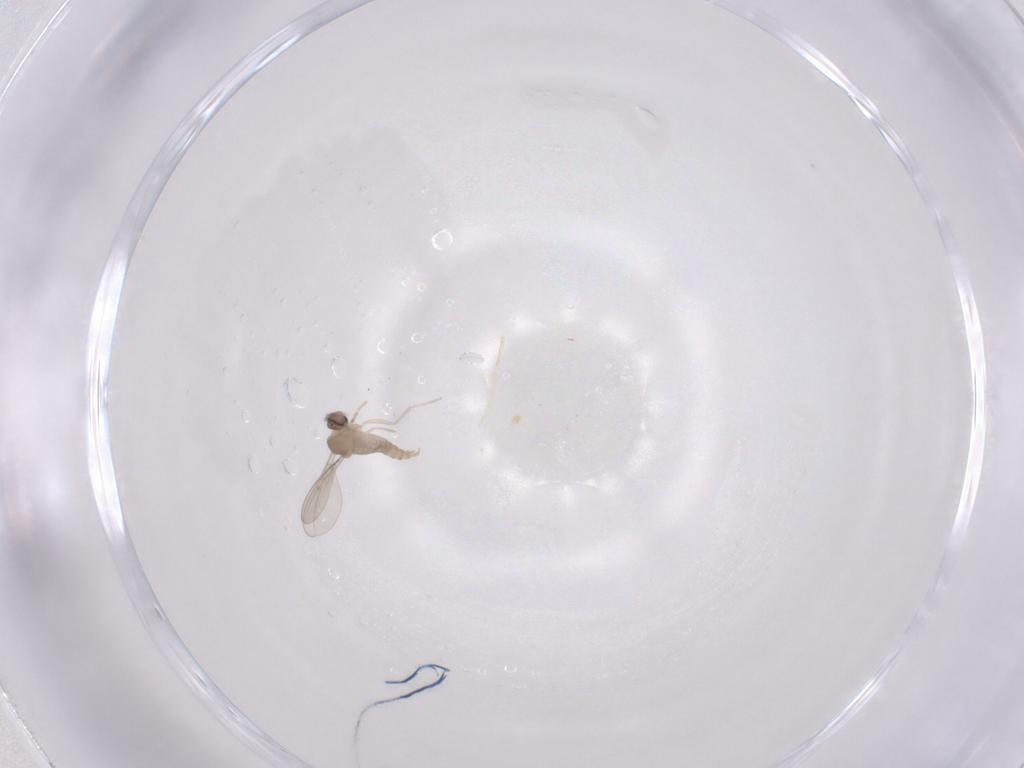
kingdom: Animalia
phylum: Arthropoda
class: Insecta
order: Diptera
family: Cecidomyiidae
